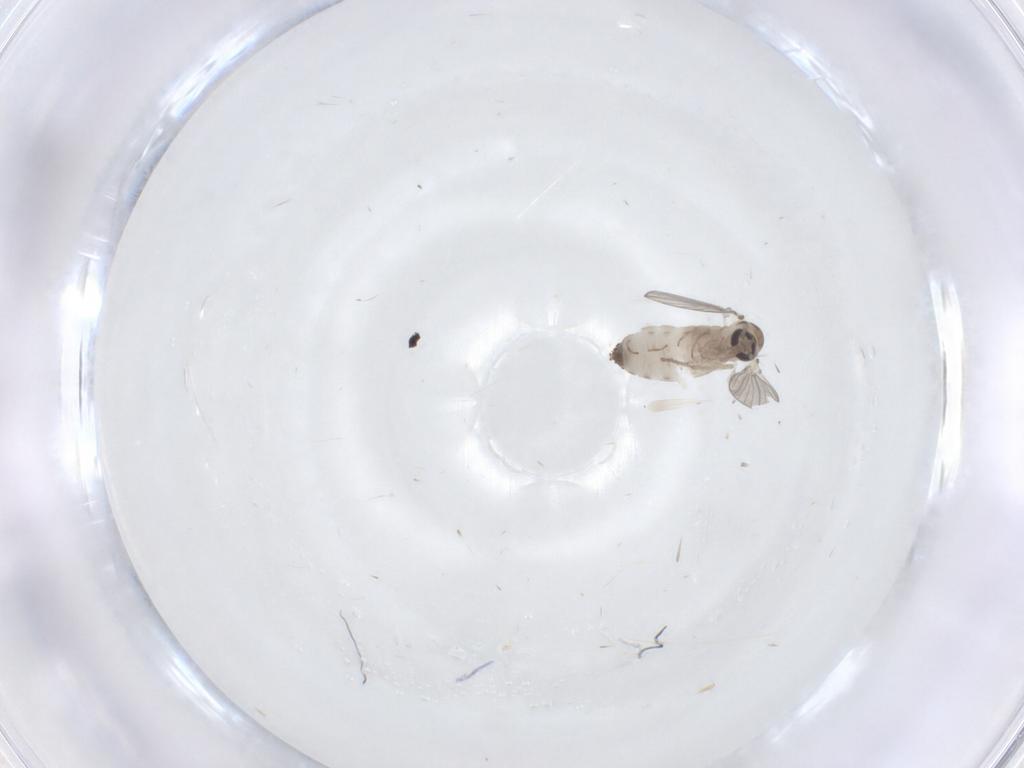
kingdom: Animalia
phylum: Arthropoda
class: Insecta
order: Diptera
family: Psychodidae
